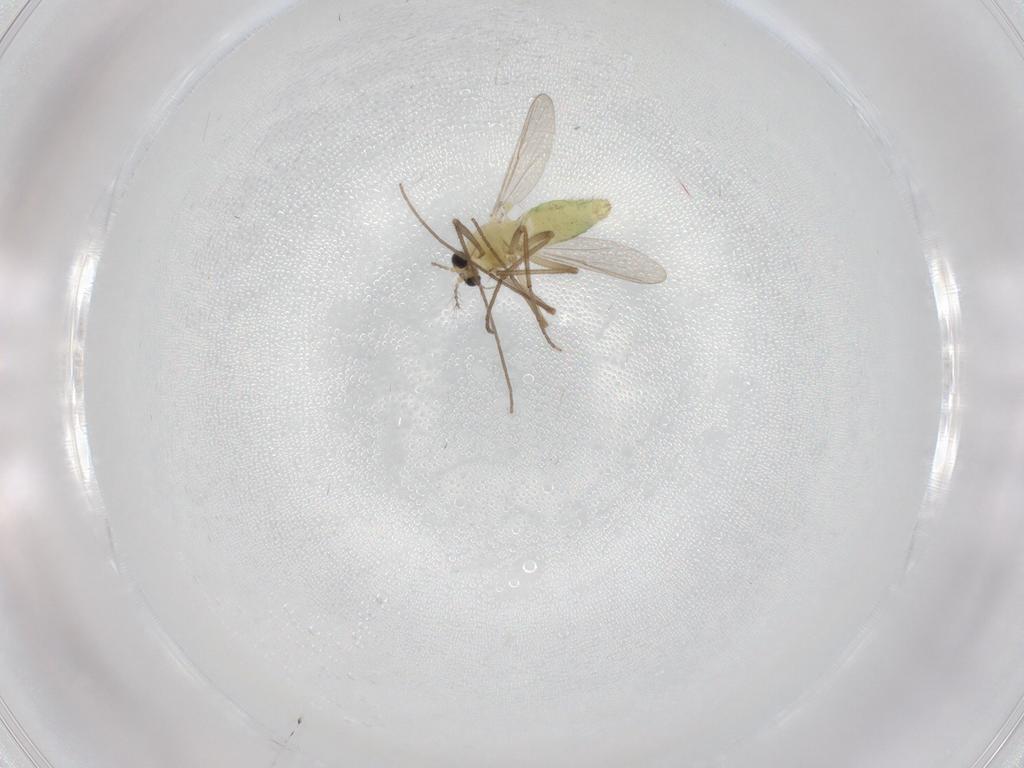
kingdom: Animalia
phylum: Arthropoda
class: Insecta
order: Diptera
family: Chironomidae
